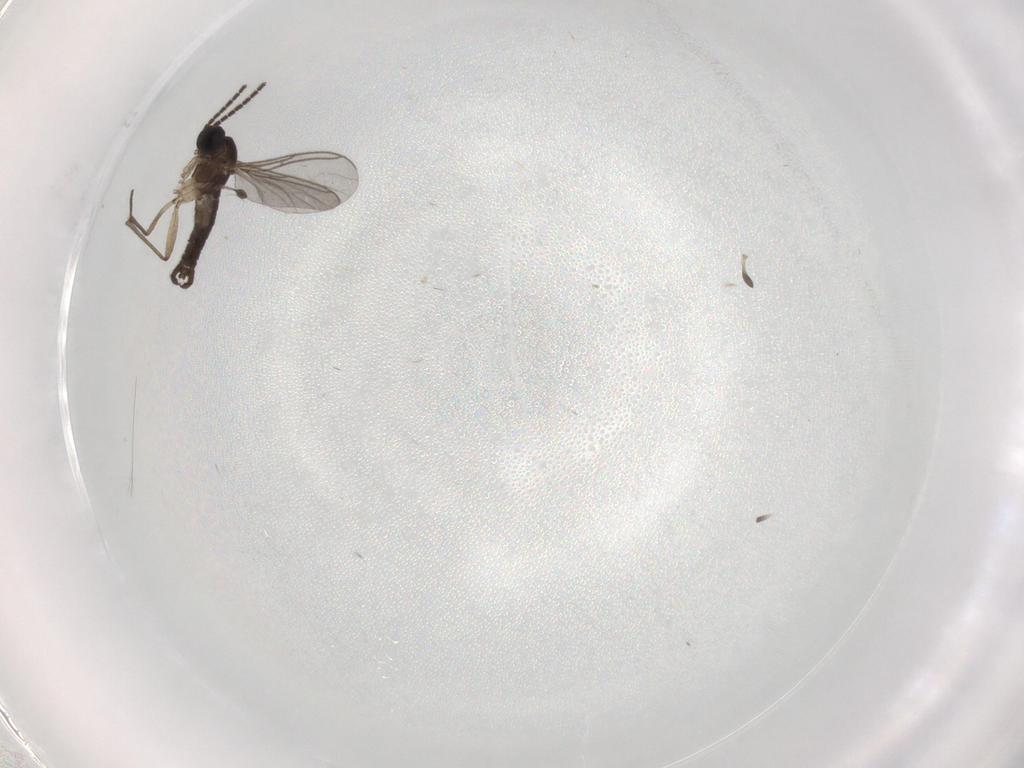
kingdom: Animalia
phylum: Arthropoda
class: Insecta
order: Diptera
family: Sciaridae
